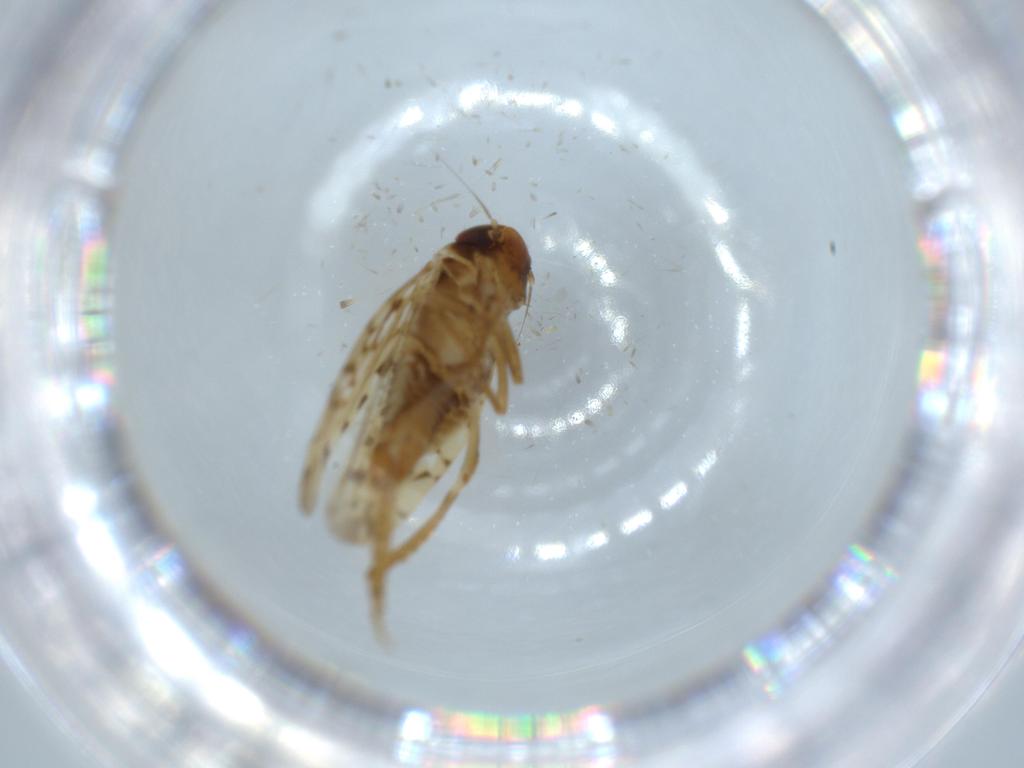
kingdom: Animalia
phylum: Arthropoda
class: Insecta
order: Hemiptera
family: Cicadellidae
